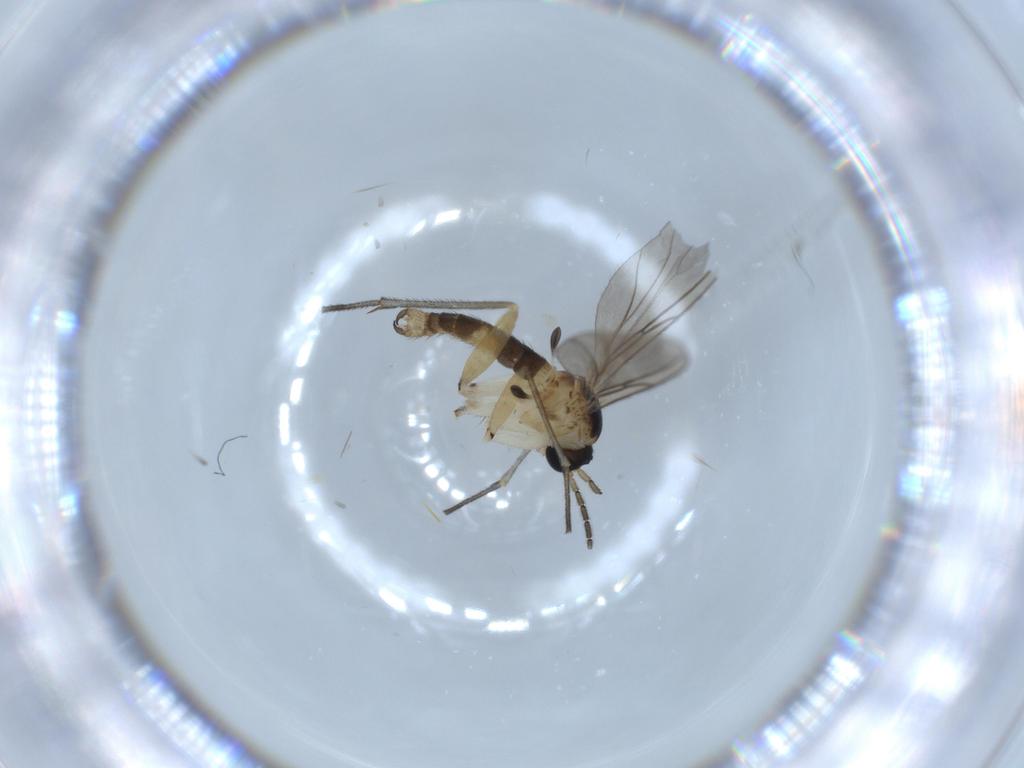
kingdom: Animalia
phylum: Arthropoda
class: Insecta
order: Diptera
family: Sciaridae
